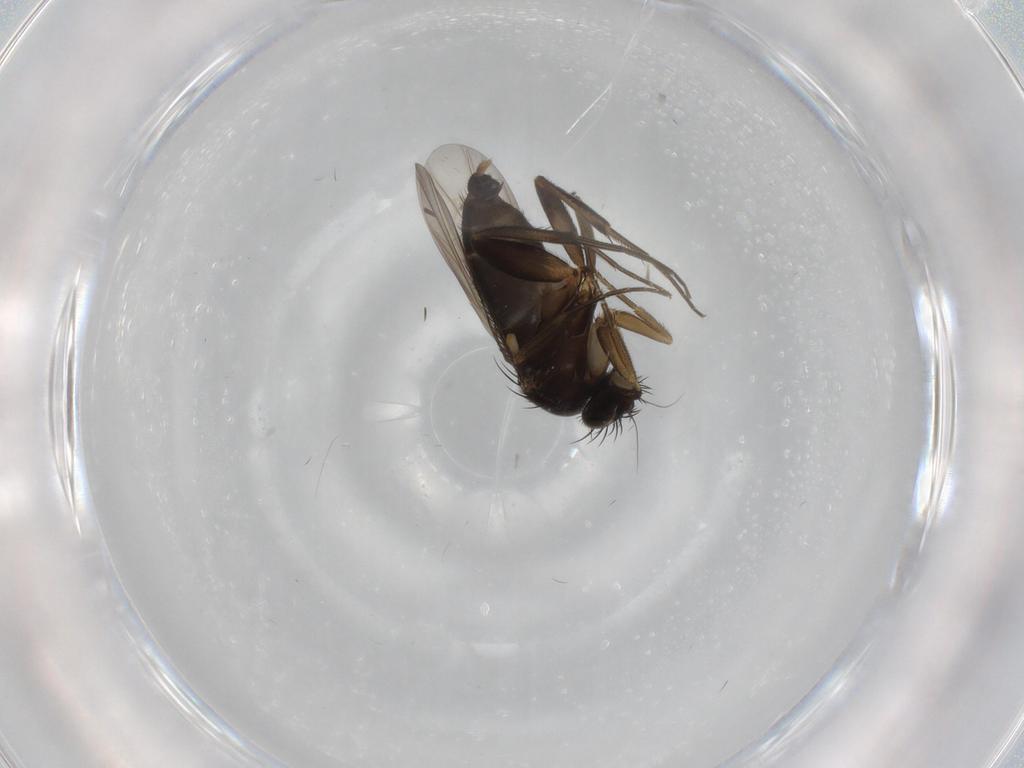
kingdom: Animalia
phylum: Arthropoda
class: Insecta
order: Diptera
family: Phoridae
